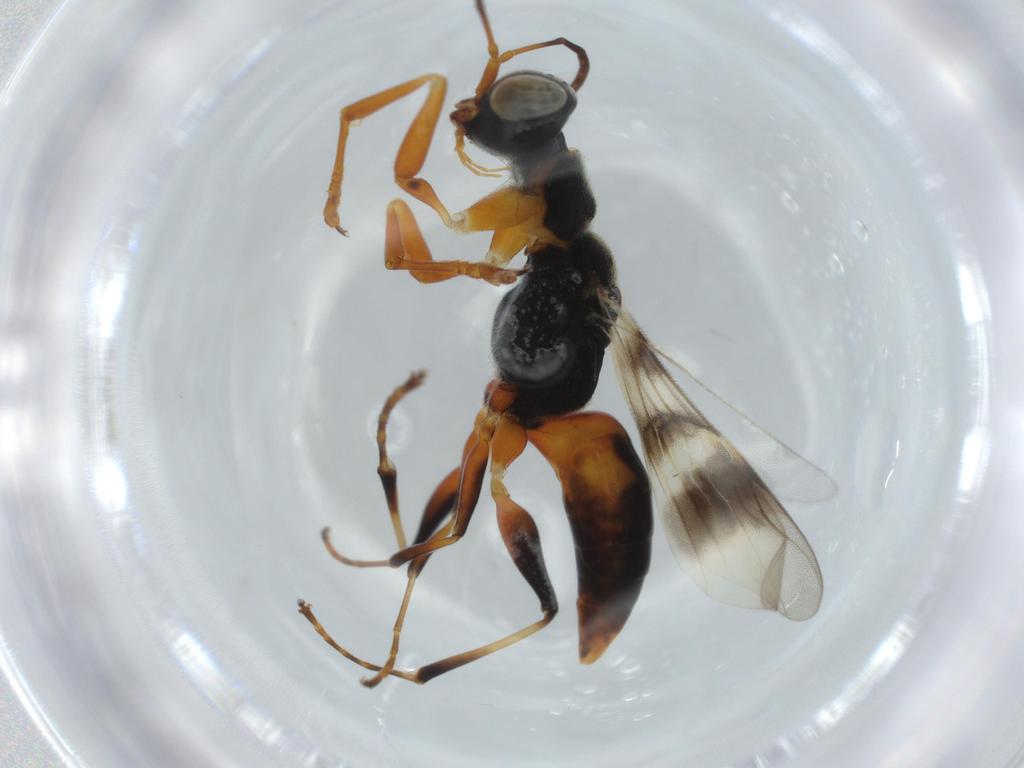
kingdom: Animalia
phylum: Arthropoda
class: Insecta
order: Hymenoptera
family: Dryinidae
